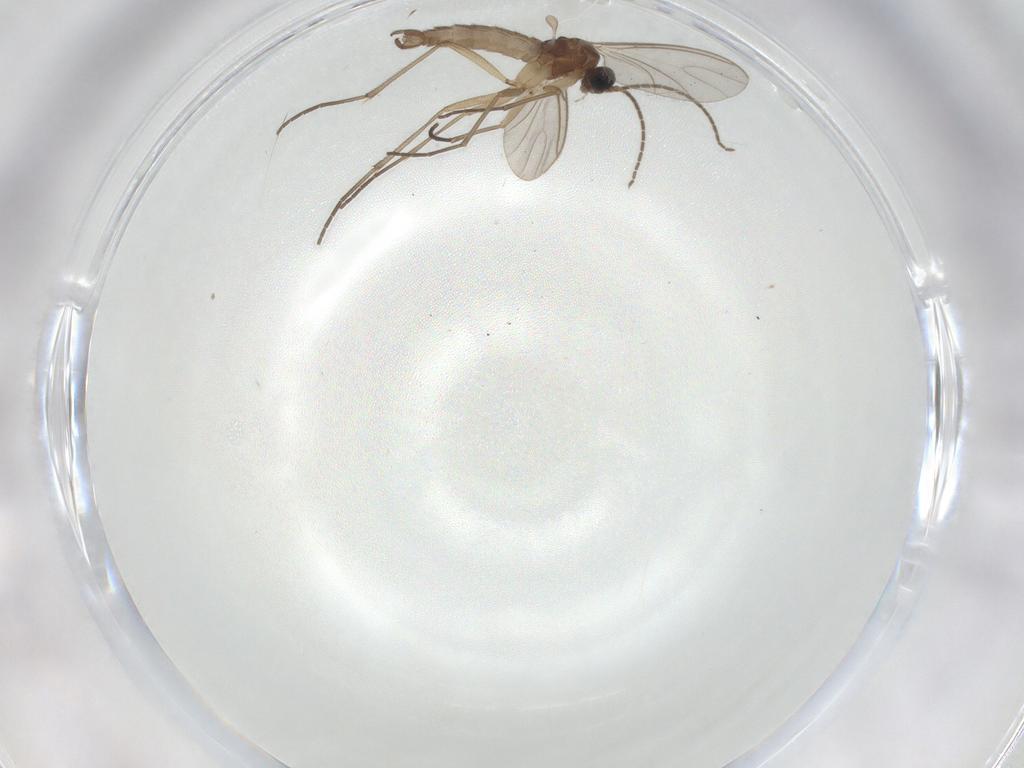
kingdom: Animalia
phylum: Arthropoda
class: Insecta
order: Diptera
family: Sciaridae
